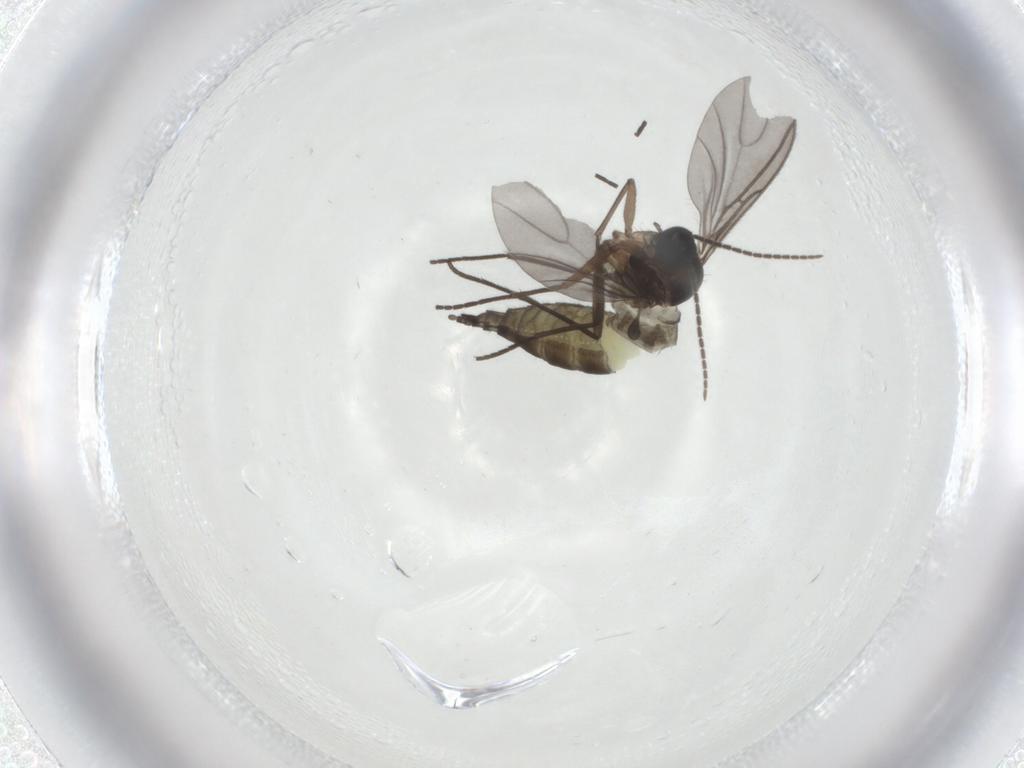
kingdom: Animalia
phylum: Arthropoda
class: Insecta
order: Diptera
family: Sciaridae
